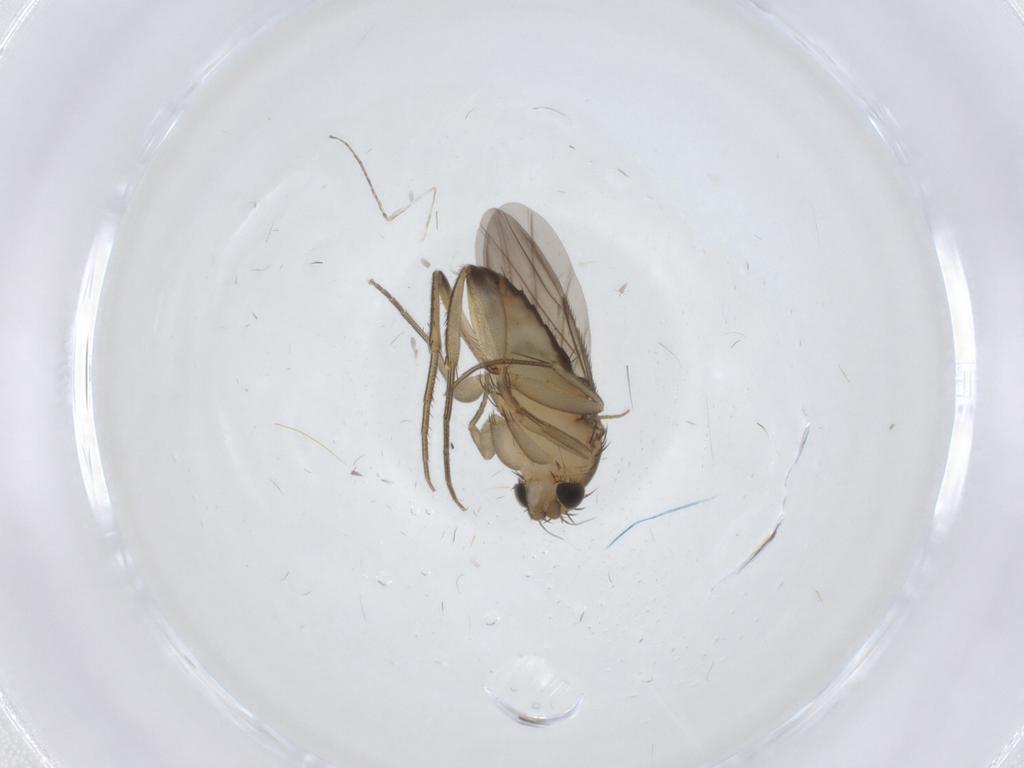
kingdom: Animalia
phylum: Arthropoda
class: Insecta
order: Diptera
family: Phoridae
